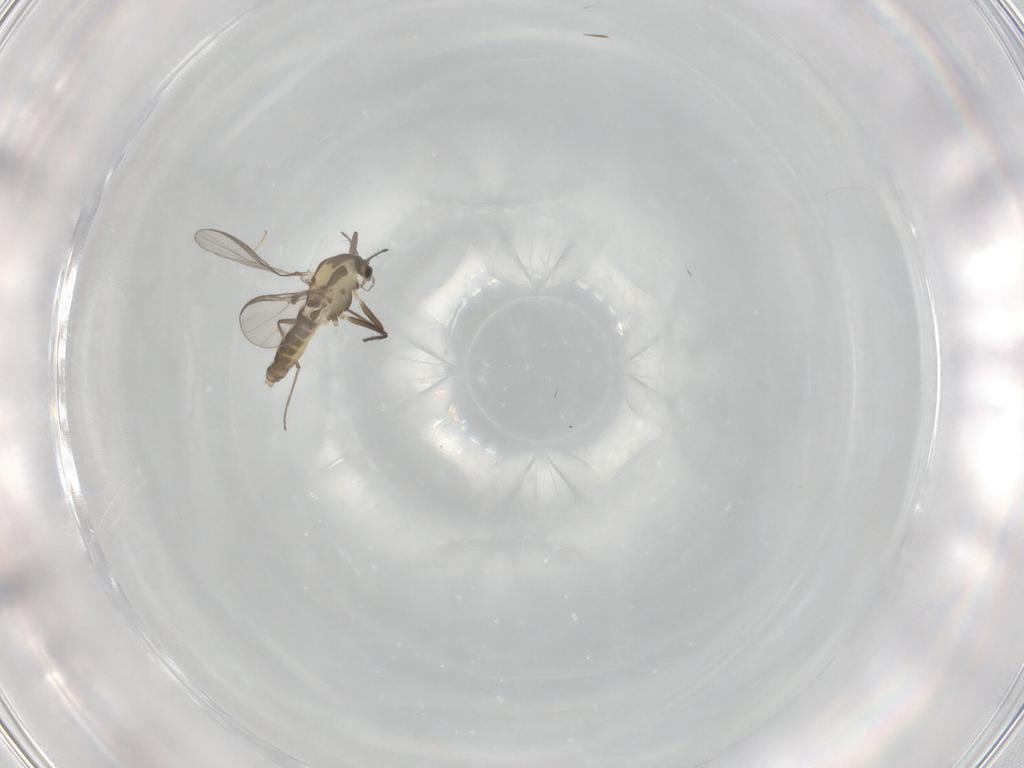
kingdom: Animalia
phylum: Arthropoda
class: Insecta
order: Diptera
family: Chironomidae
